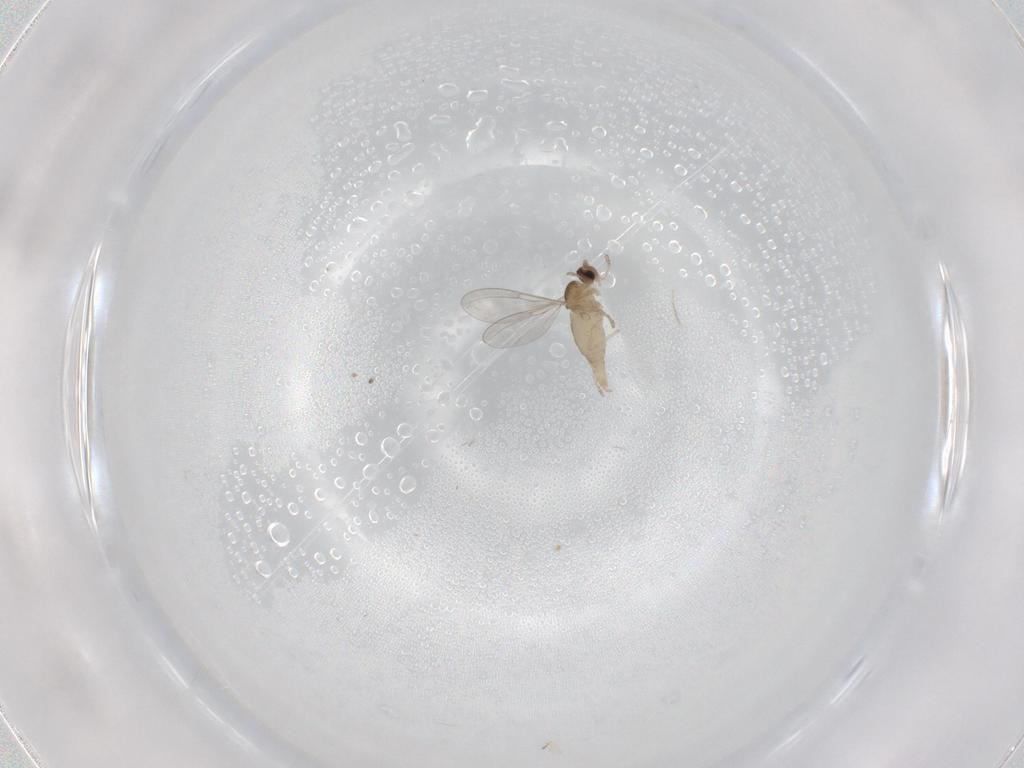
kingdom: Animalia
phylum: Arthropoda
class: Insecta
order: Diptera
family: Cecidomyiidae
